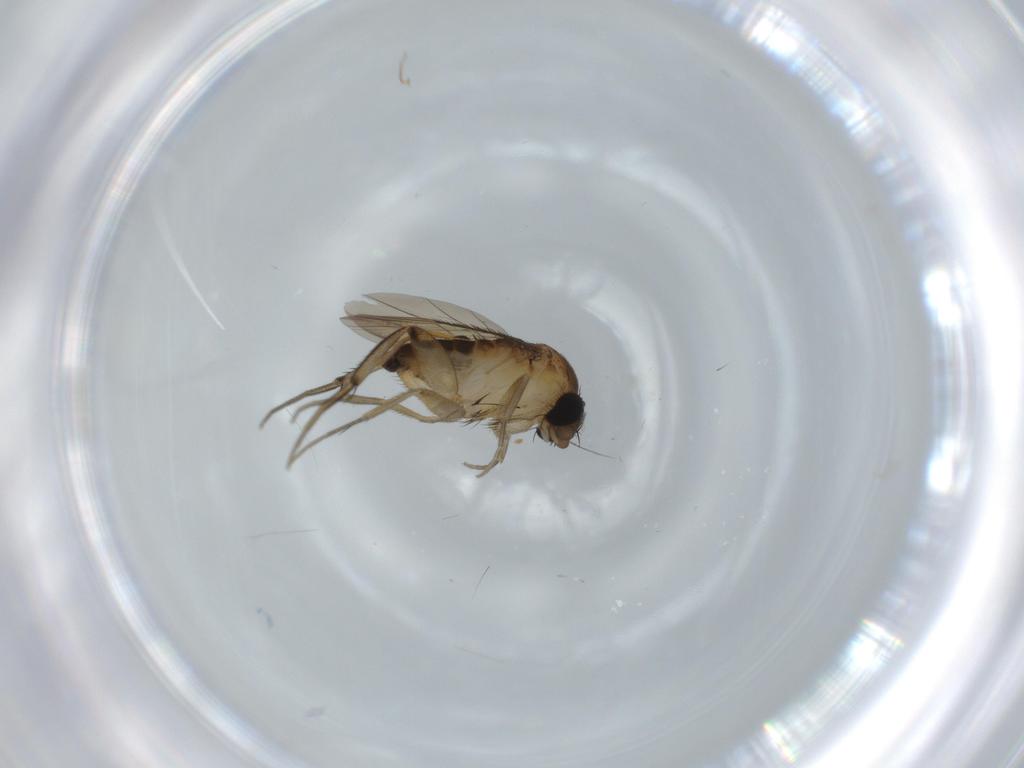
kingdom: Animalia
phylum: Arthropoda
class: Insecta
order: Diptera
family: Phoridae
